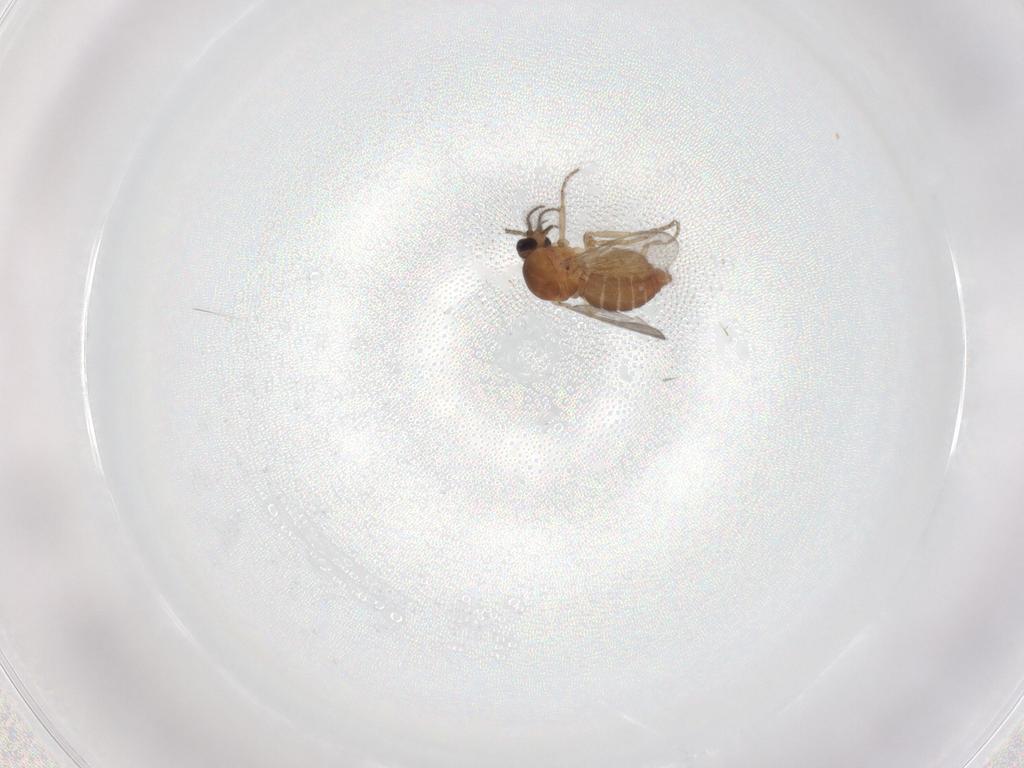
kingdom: Animalia
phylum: Arthropoda
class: Insecta
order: Diptera
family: Ceratopogonidae
